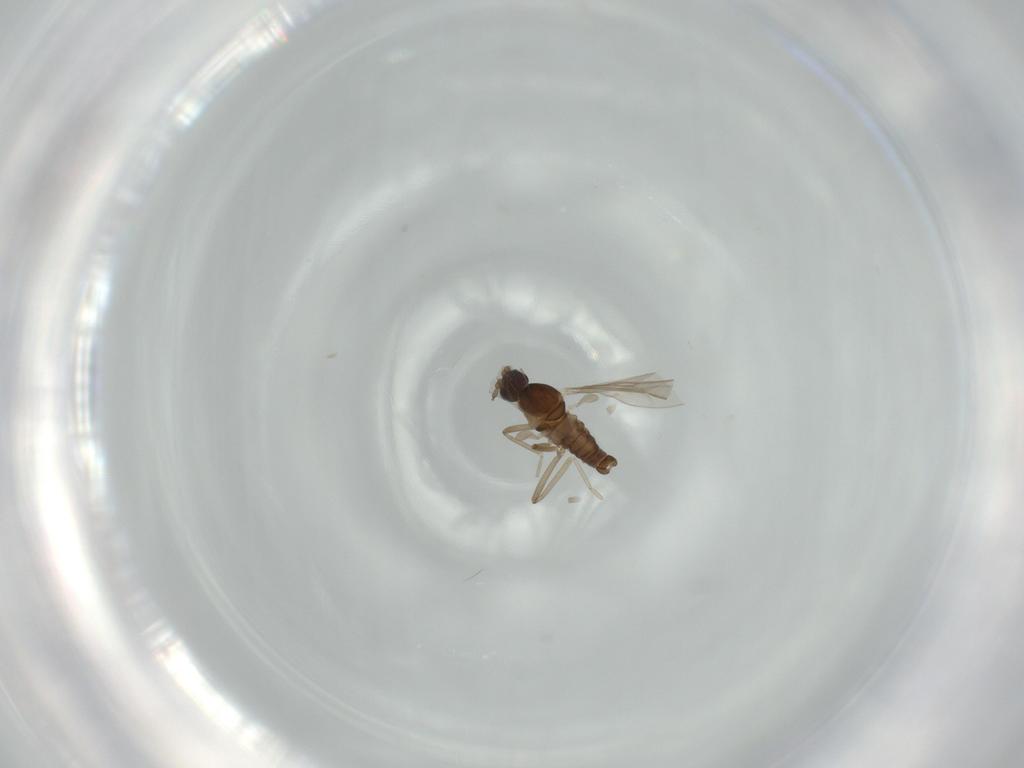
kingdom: Animalia
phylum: Arthropoda
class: Insecta
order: Diptera
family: Cecidomyiidae
